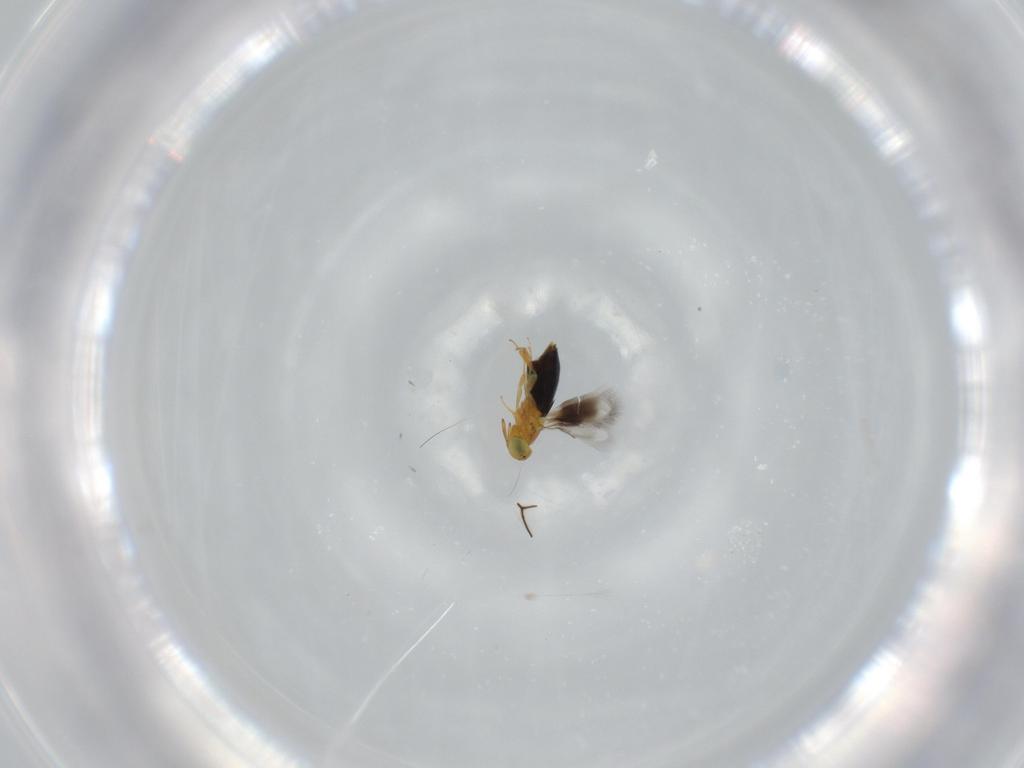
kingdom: Animalia
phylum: Arthropoda
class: Insecta
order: Hymenoptera
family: Signiphoridae
